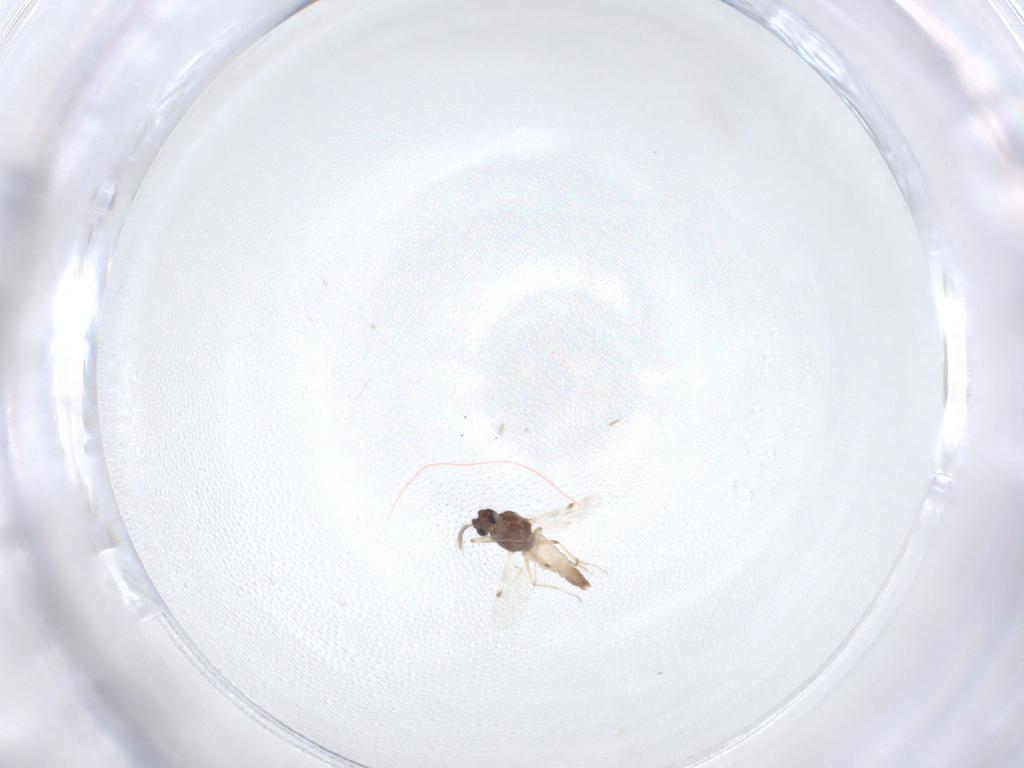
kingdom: Animalia
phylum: Arthropoda
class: Insecta
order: Diptera
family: Dolichopodidae
